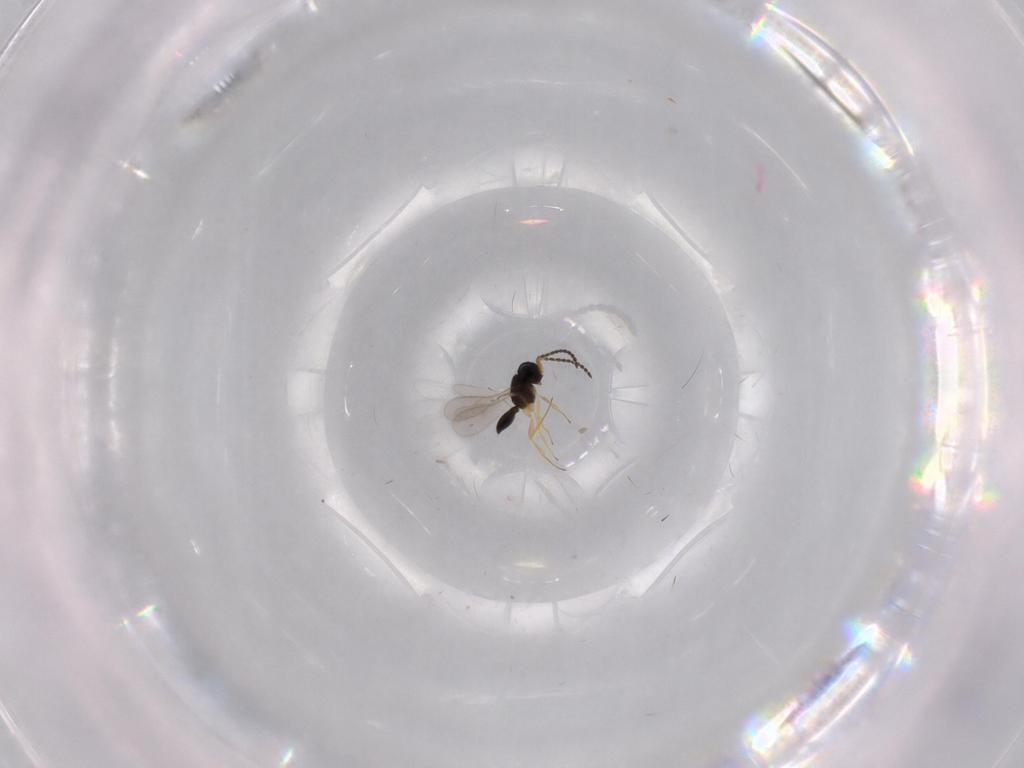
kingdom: Animalia
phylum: Arthropoda
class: Insecta
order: Hymenoptera
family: Scelionidae
